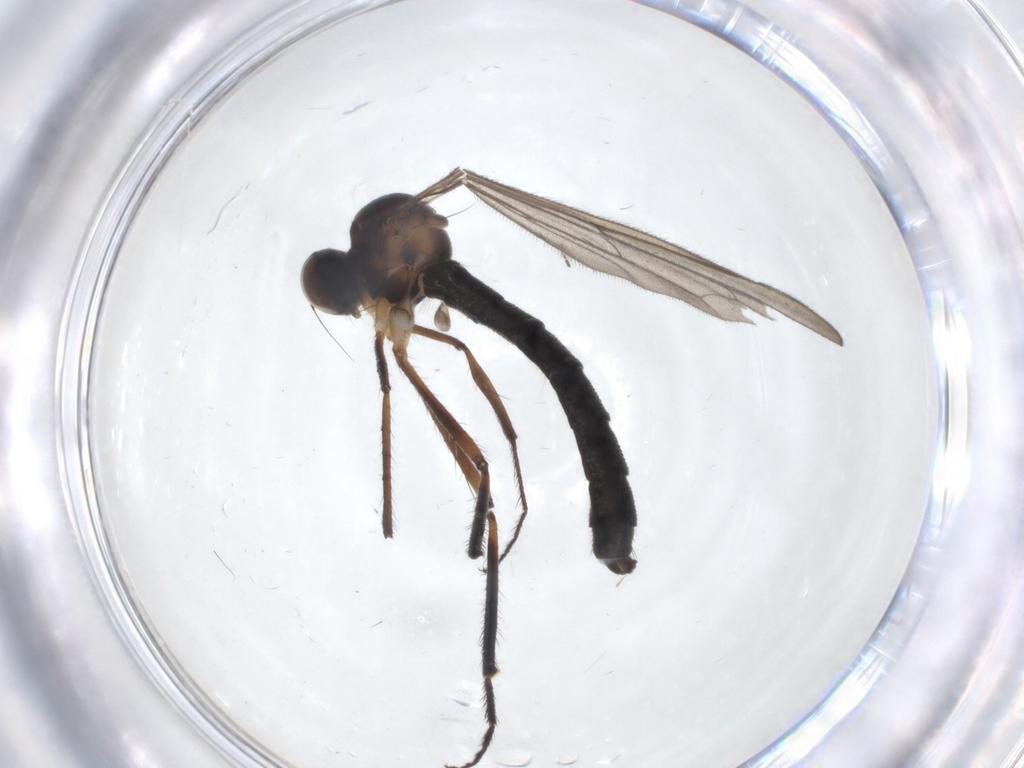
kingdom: Animalia
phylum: Arthropoda
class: Insecta
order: Diptera
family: Hybotidae
